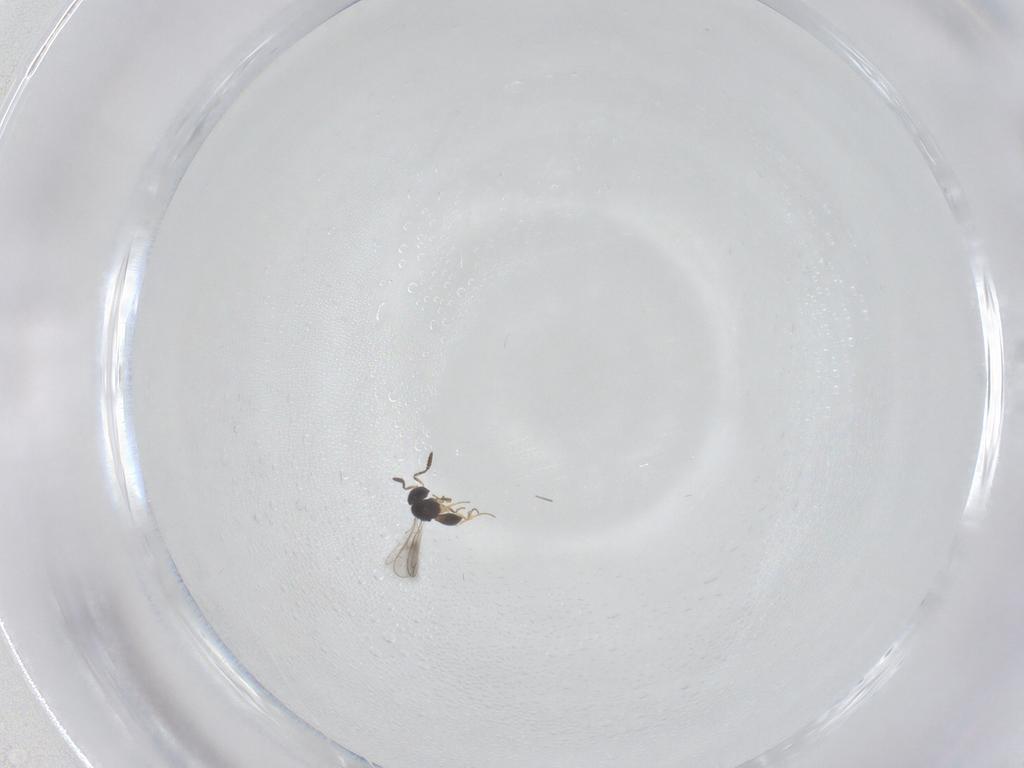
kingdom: Animalia
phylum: Arthropoda
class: Insecta
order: Hymenoptera
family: Scelionidae
